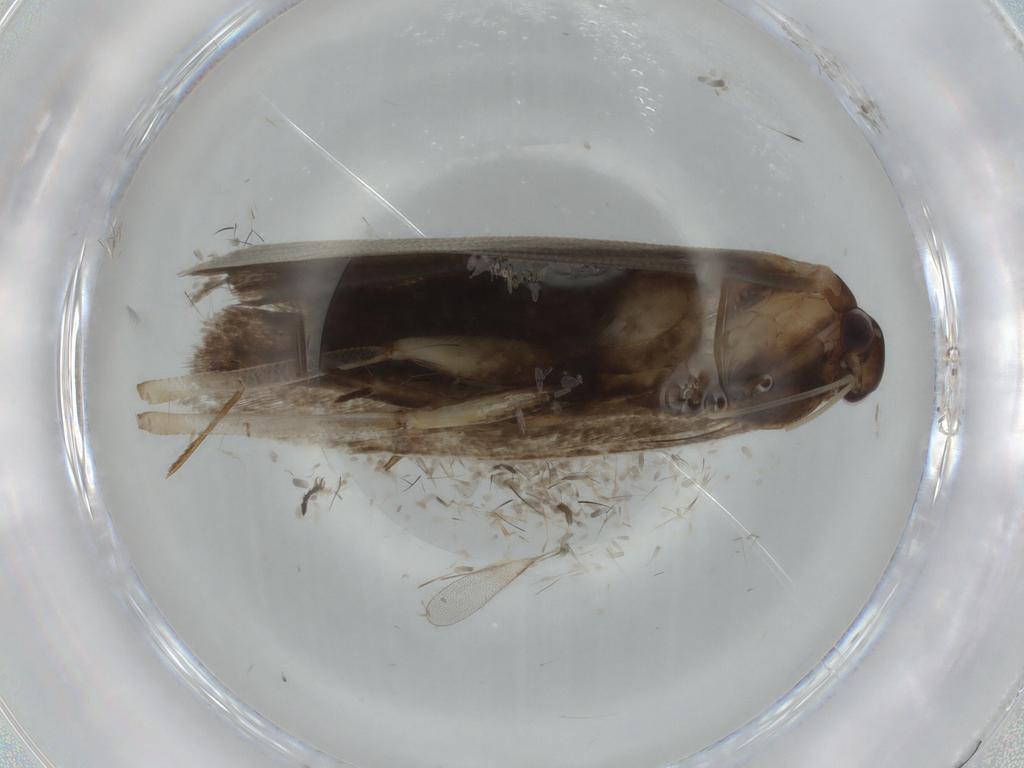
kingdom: Animalia
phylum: Arthropoda
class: Insecta
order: Lepidoptera
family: Gelechiidae
